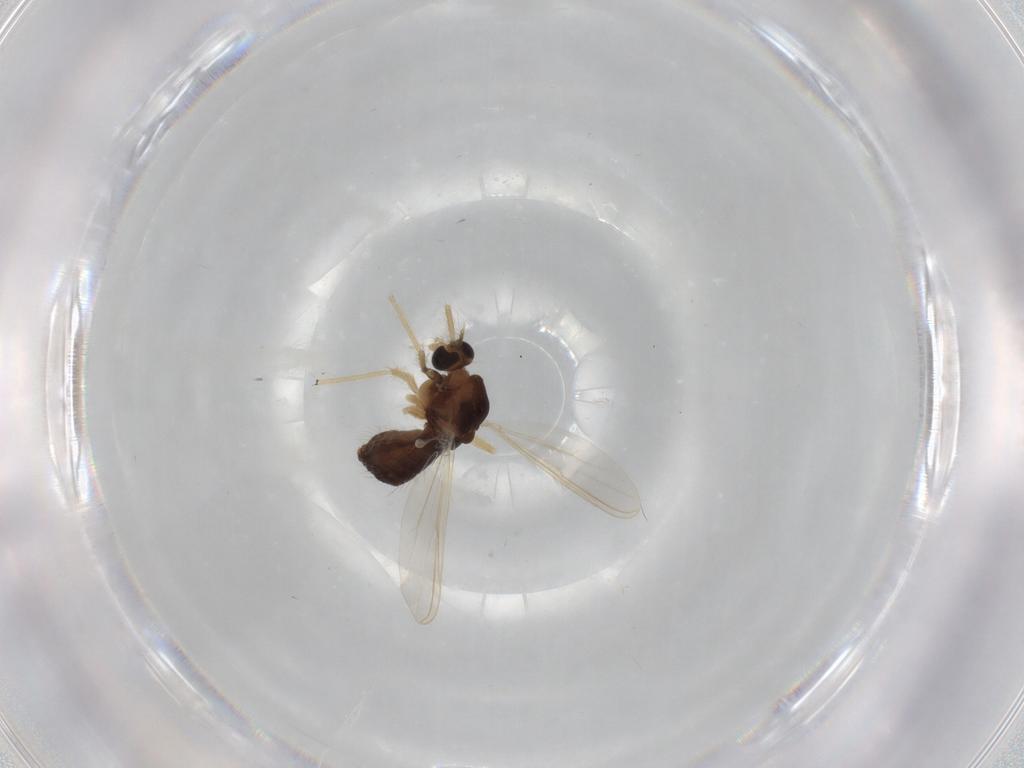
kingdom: Animalia
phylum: Arthropoda
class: Insecta
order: Diptera
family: Chironomidae
